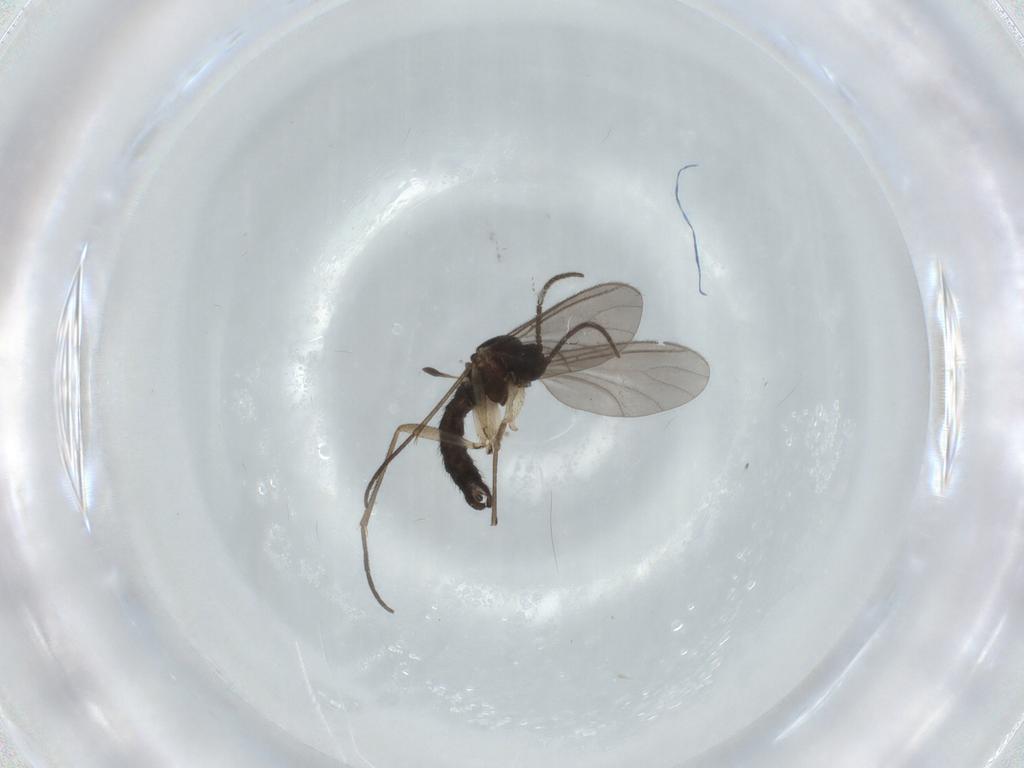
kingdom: Animalia
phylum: Arthropoda
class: Insecta
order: Diptera
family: Sciaridae
